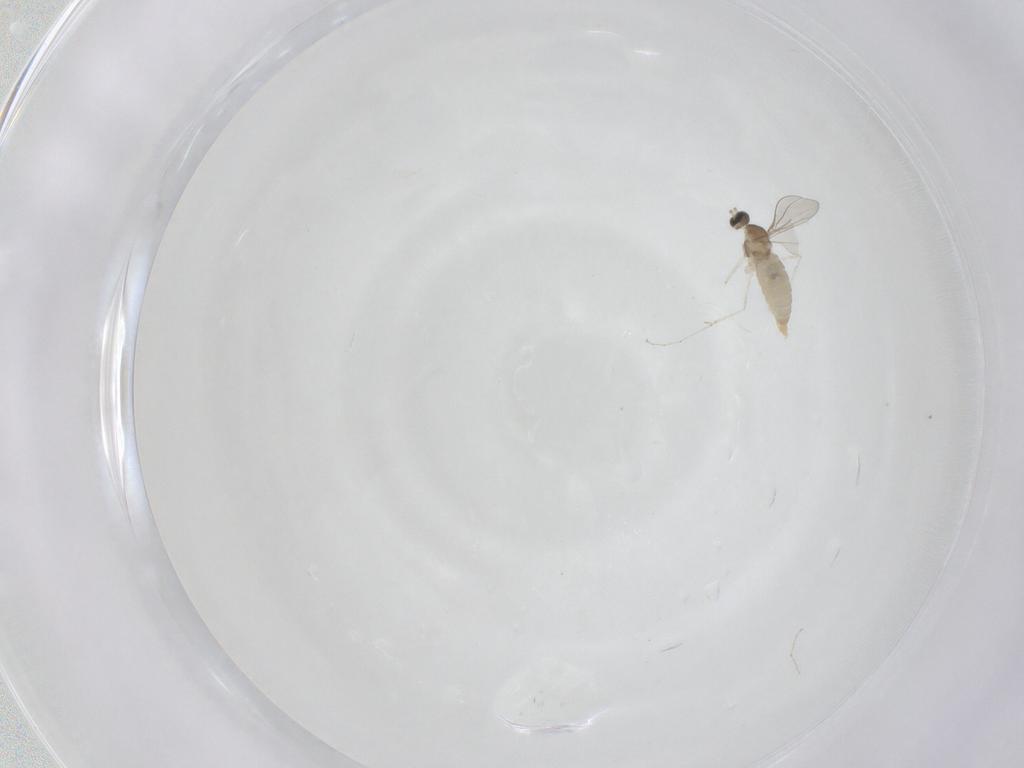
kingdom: Animalia
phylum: Arthropoda
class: Insecta
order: Diptera
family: Cecidomyiidae
